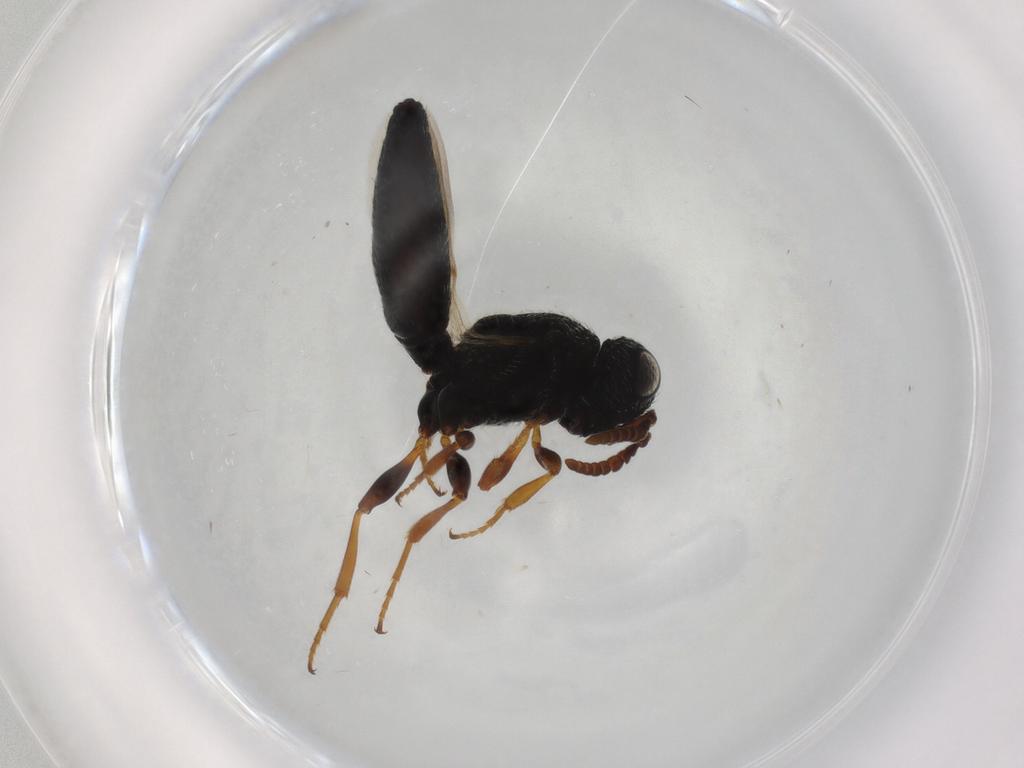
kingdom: Animalia
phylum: Arthropoda
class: Insecta
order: Hymenoptera
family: Scelionidae
